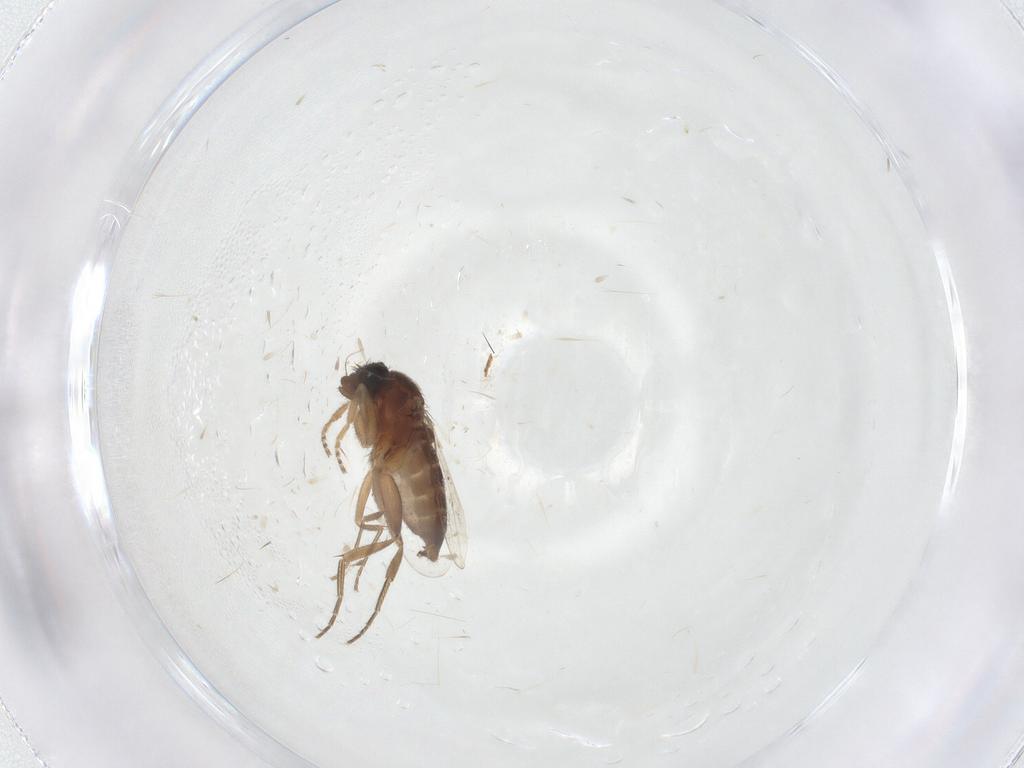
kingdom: Animalia
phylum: Arthropoda
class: Insecta
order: Diptera
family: Phoridae
